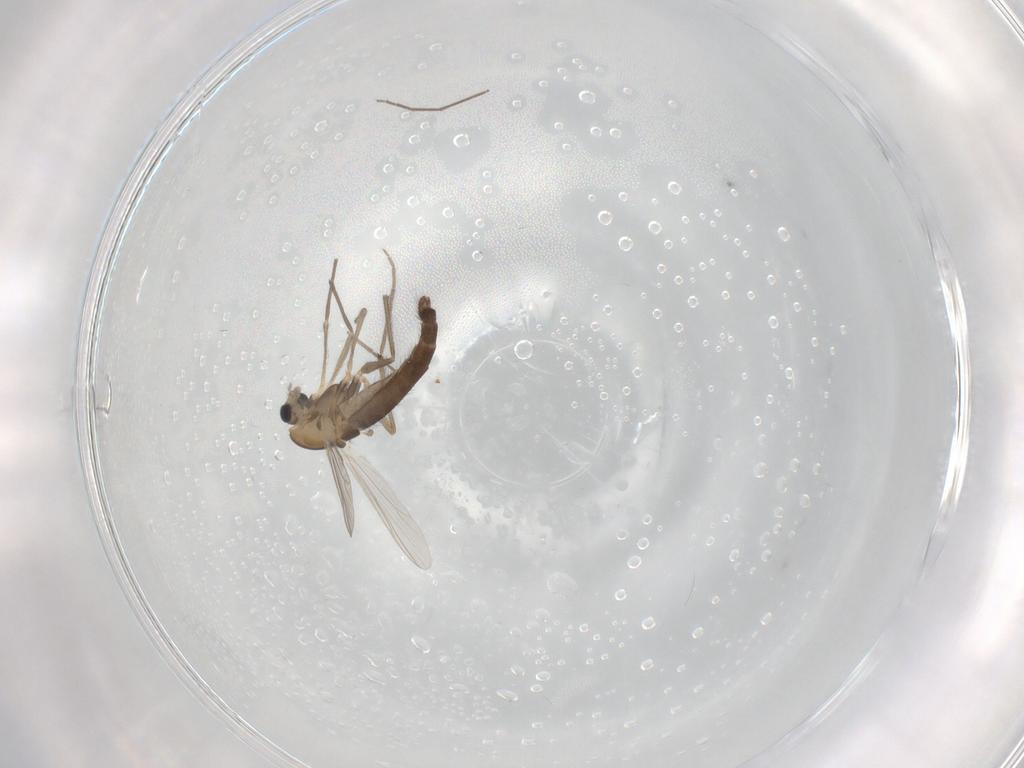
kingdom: Animalia
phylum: Arthropoda
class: Insecta
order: Diptera
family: Chironomidae
